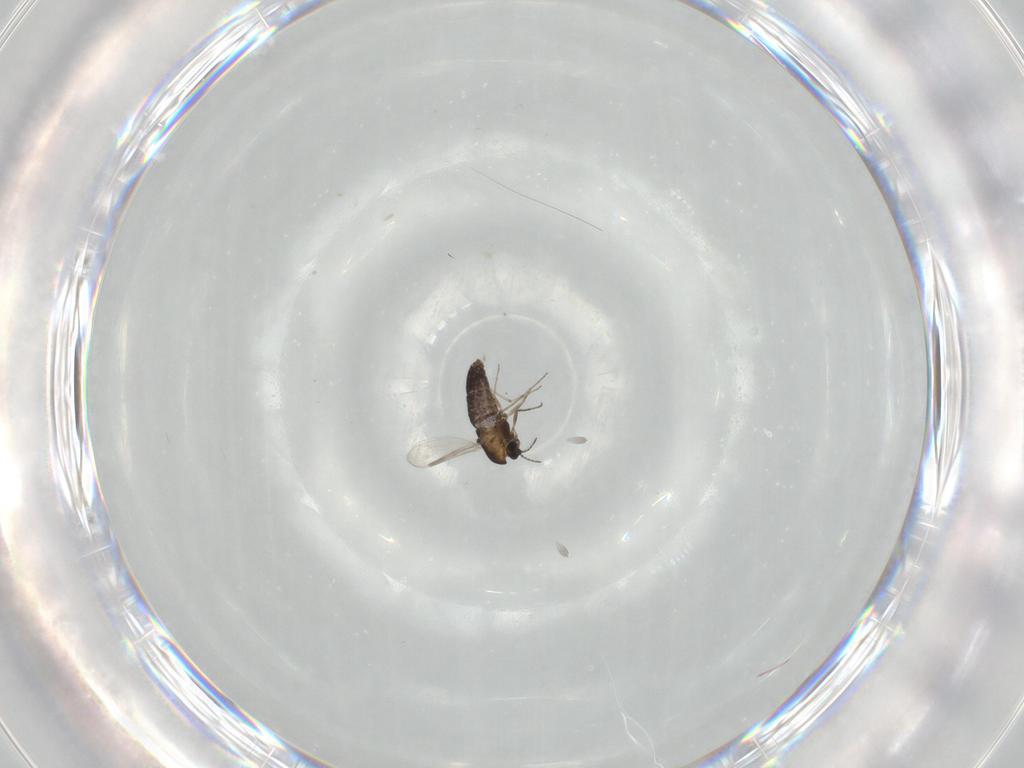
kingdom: Animalia
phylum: Arthropoda
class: Insecta
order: Diptera
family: Chironomidae
